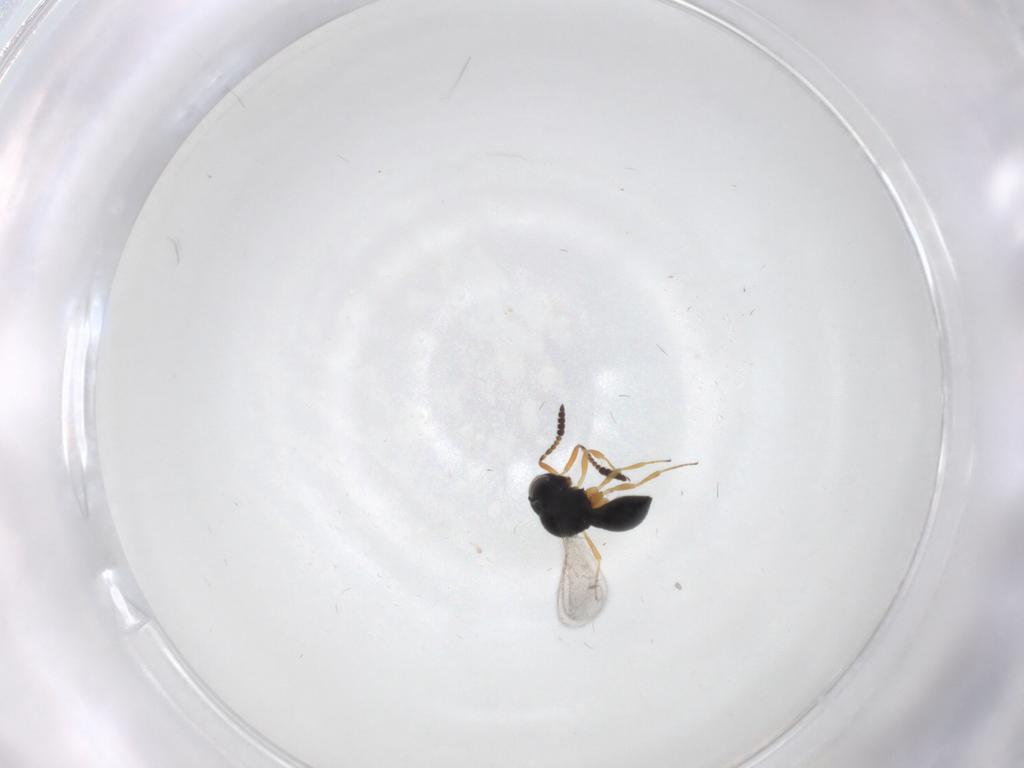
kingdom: Animalia
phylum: Arthropoda
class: Insecta
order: Hymenoptera
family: Scelionidae
